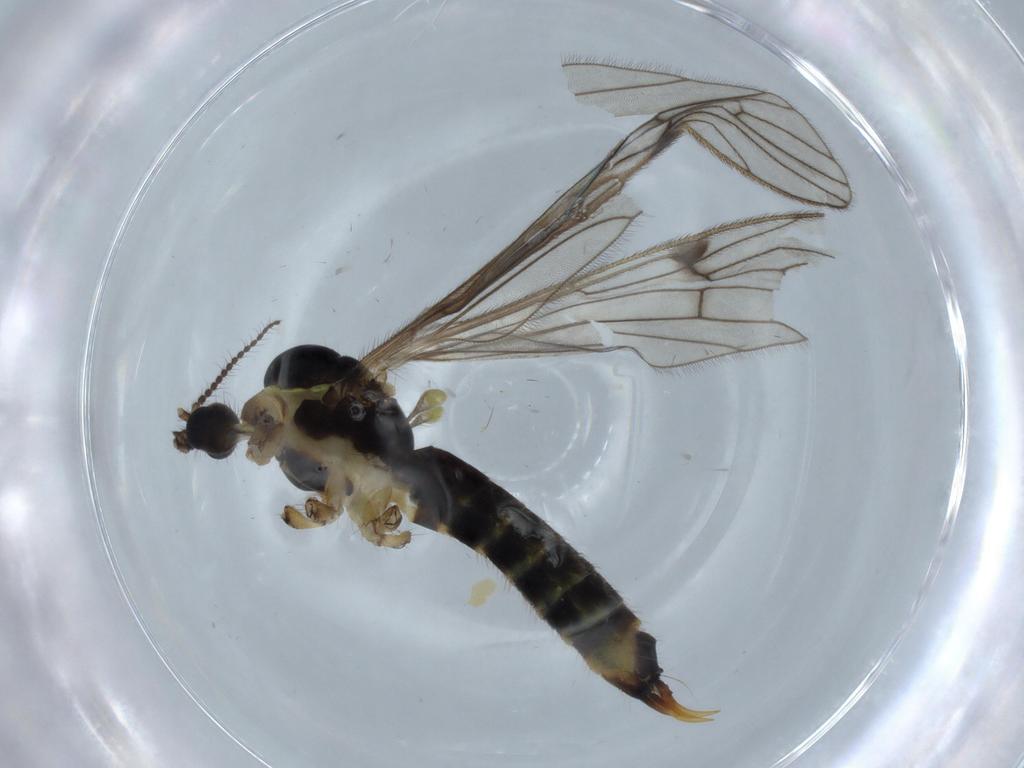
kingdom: Animalia
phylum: Arthropoda
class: Insecta
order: Diptera
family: Limoniidae
